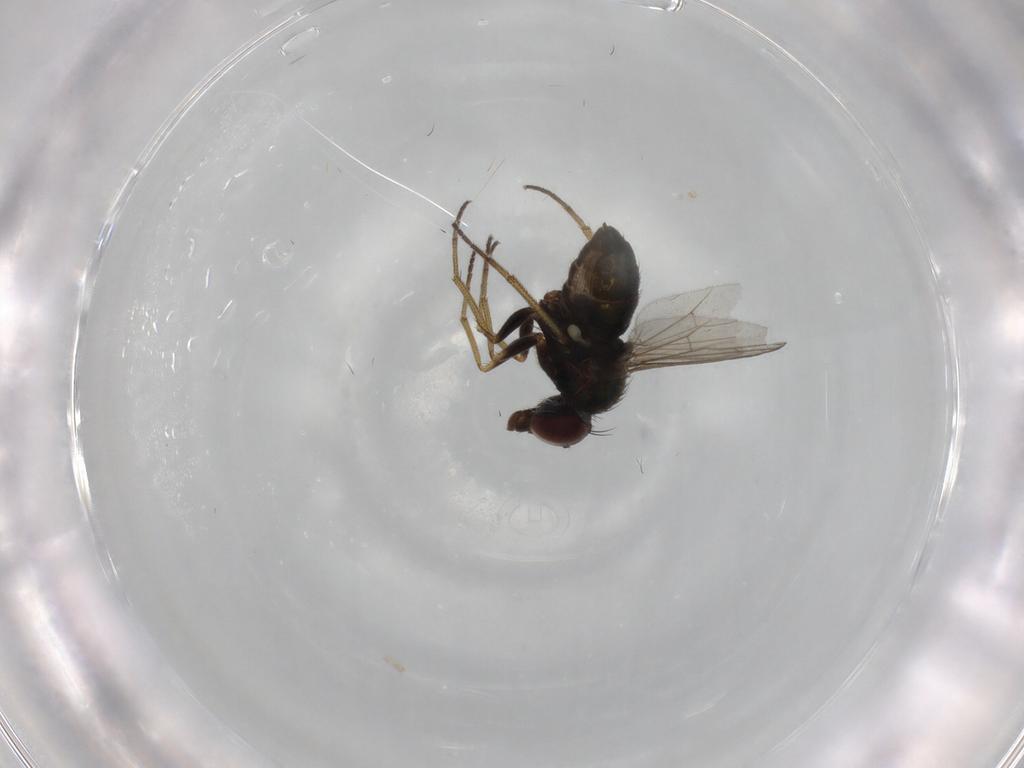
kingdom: Animalia
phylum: Arthropoda
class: Insecta
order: Diptera
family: Dolichopodidae
